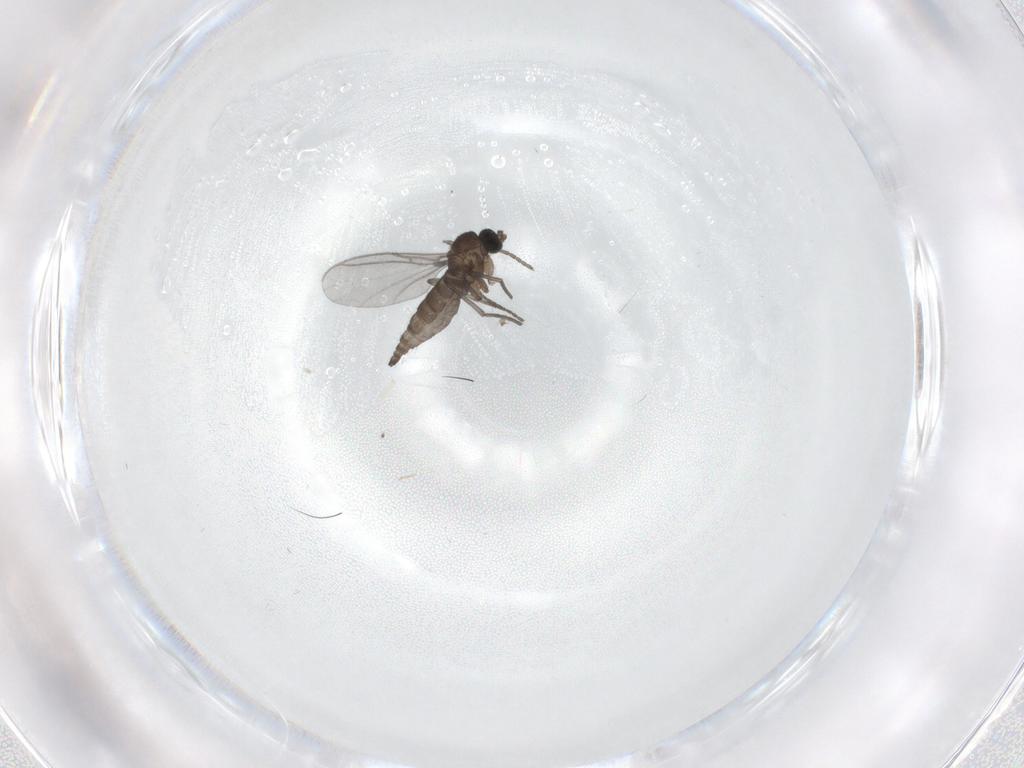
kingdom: Animalia
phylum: Arthropoda
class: Insecta
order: Diptera
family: Sciaridae
